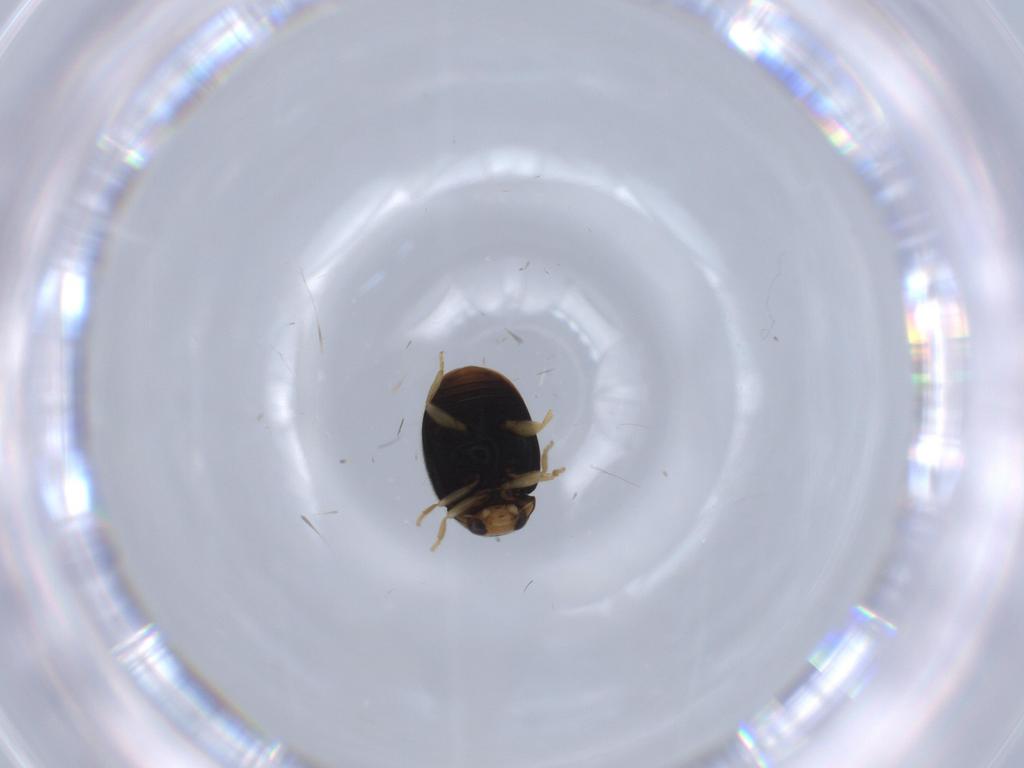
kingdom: Animalia
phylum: Arthropoda
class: Insecta
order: Coleoptera
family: Coccinellidae
